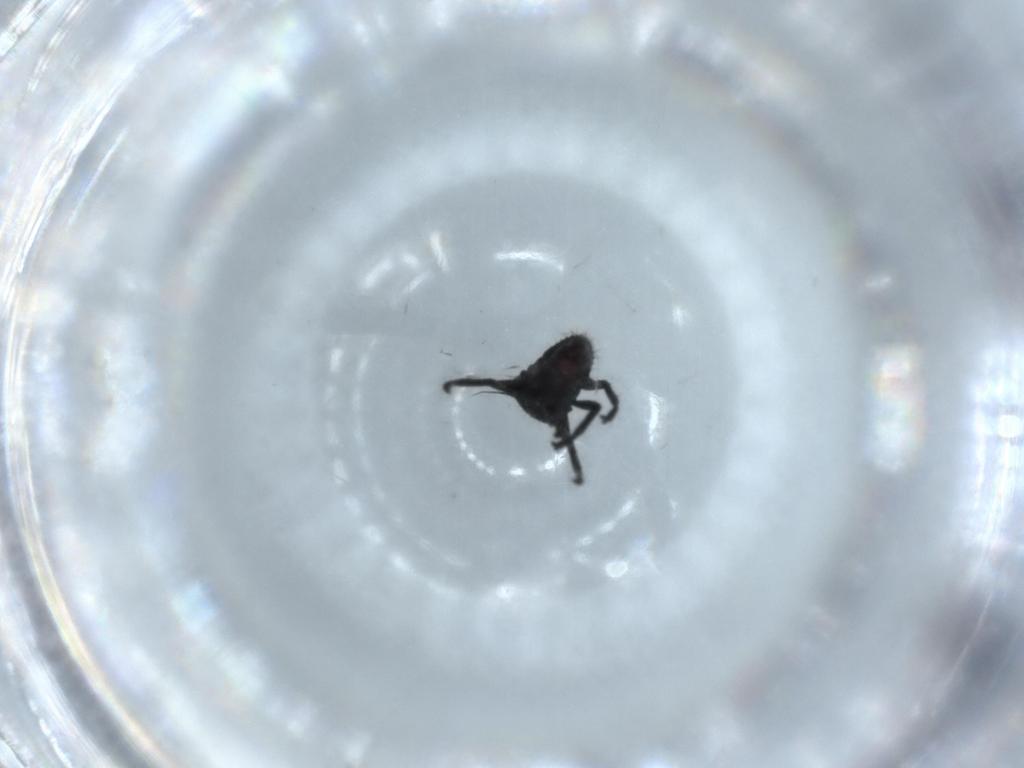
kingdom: Animalia
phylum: Arthropoda
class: Insecta
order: Hemiptera
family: Cicadellidae
